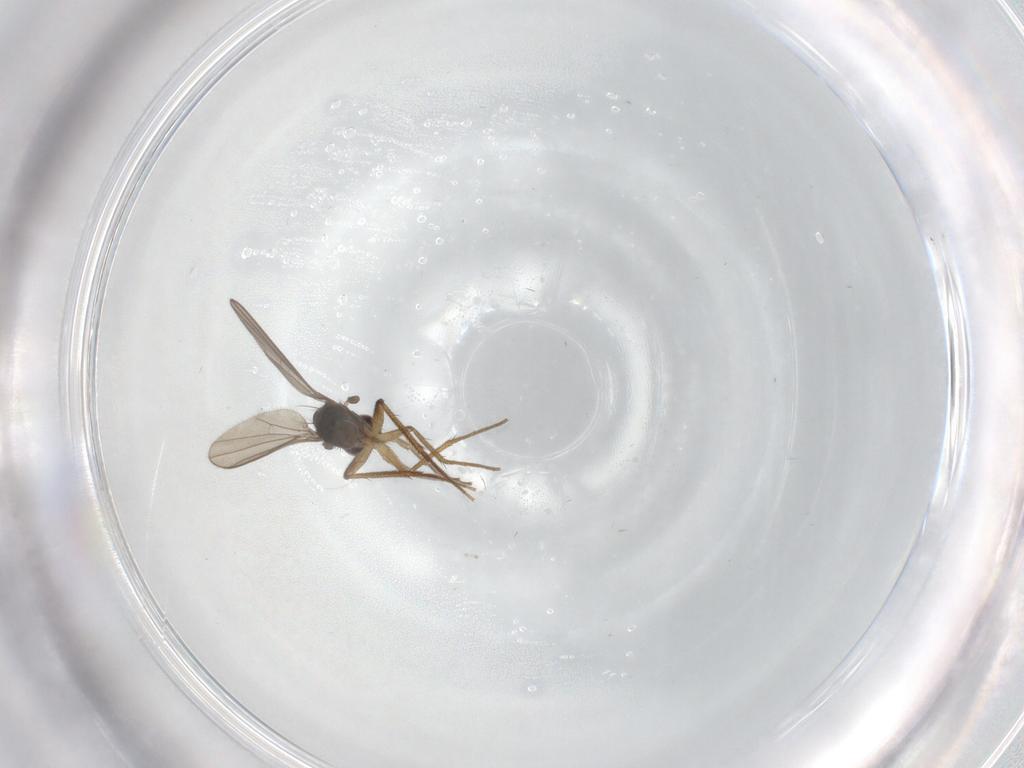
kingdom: Animalia
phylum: Arthropoda
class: Insecta
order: Diptera
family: Dolichopodidae
